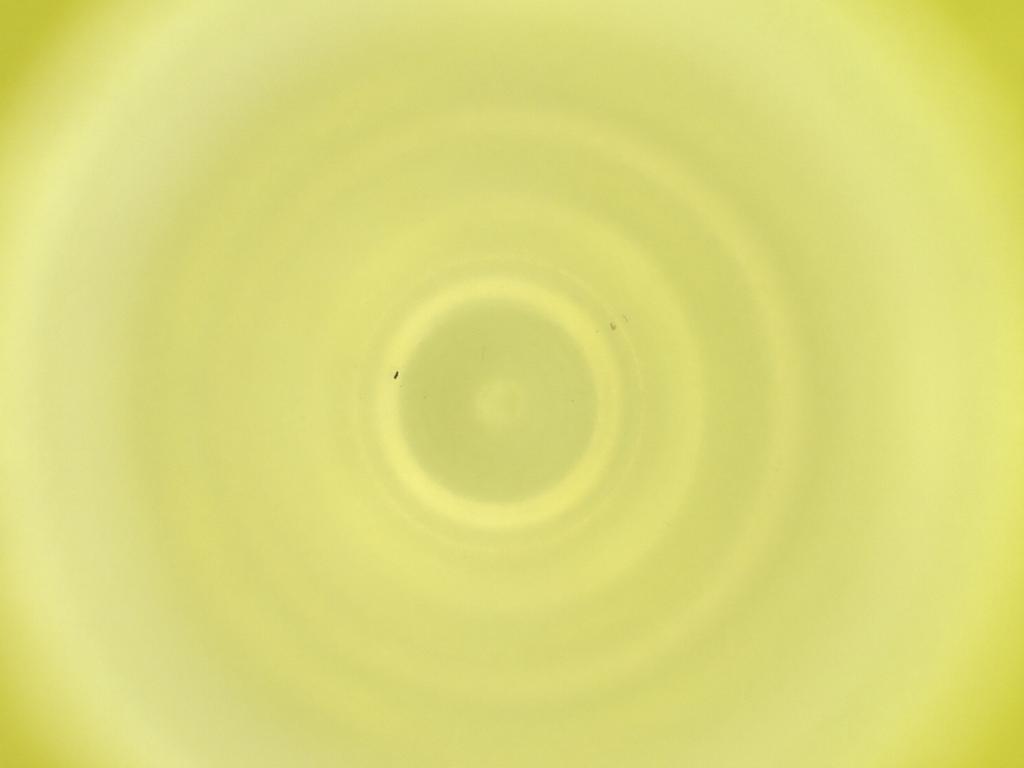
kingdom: Animalia
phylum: Arthropoda
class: Insecta
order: Diptera
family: Cecidomyiidae
